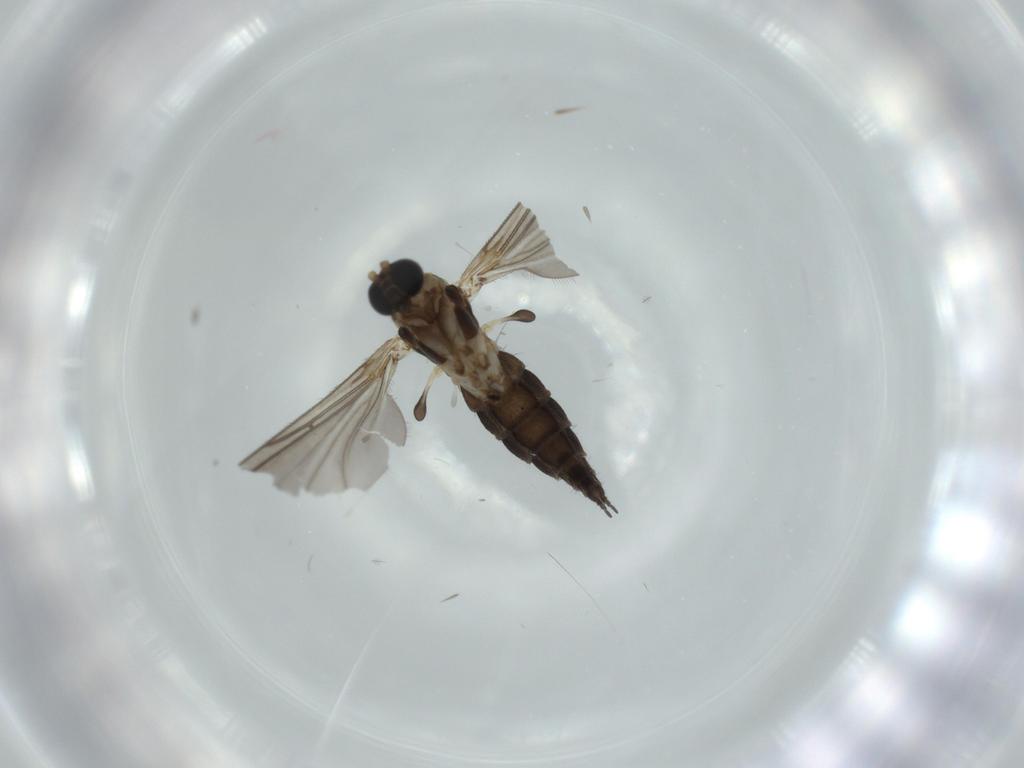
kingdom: Animalia
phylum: Arthropoda
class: Insecta
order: Diptera
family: Sciaridae
